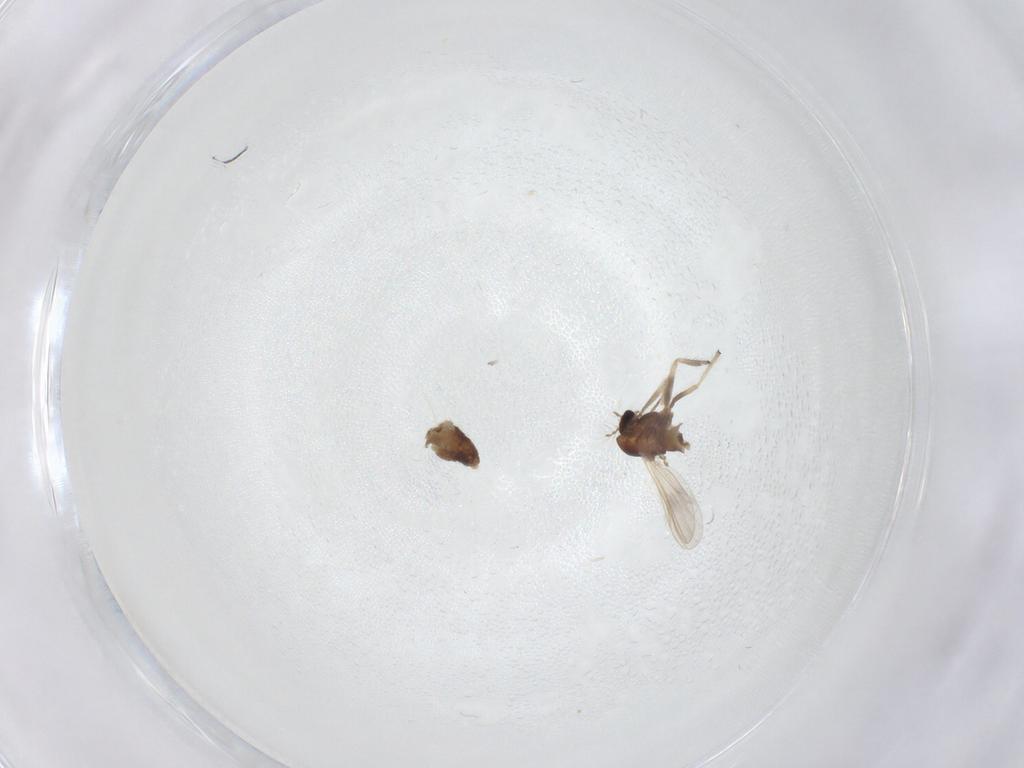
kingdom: Animalia
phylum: Arthropoda
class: Insecta
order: Diptera
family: Chironomidae
